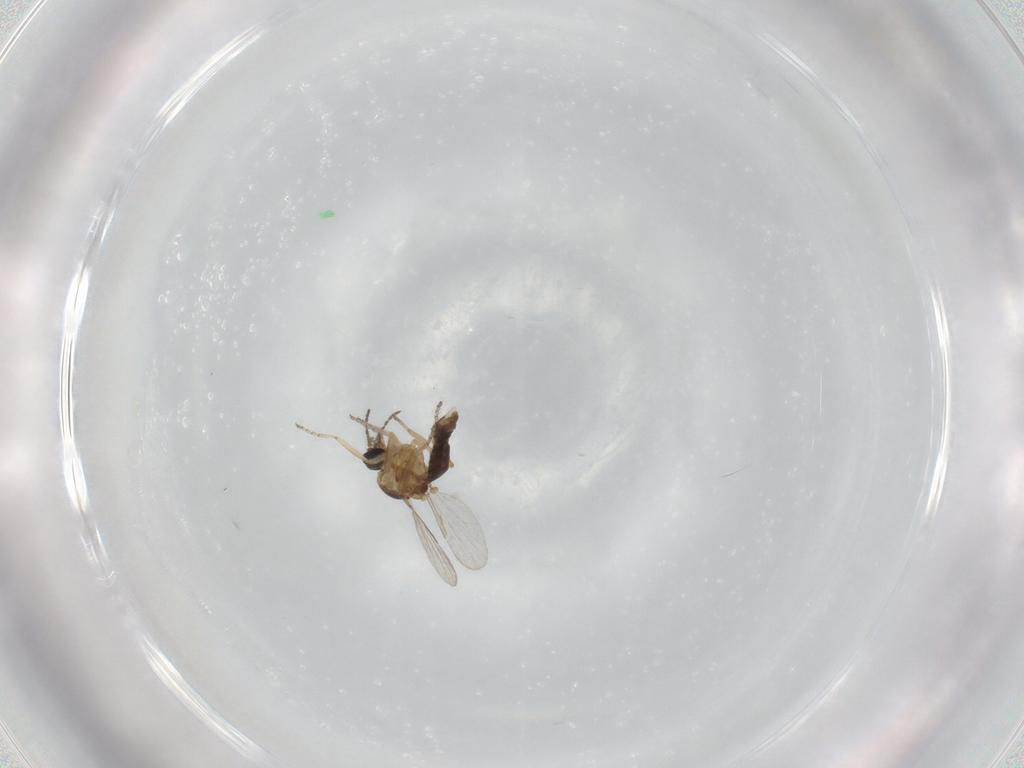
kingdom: Animalia
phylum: Arthropoda
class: Insecta
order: Diptera
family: Ceratopogonidae
